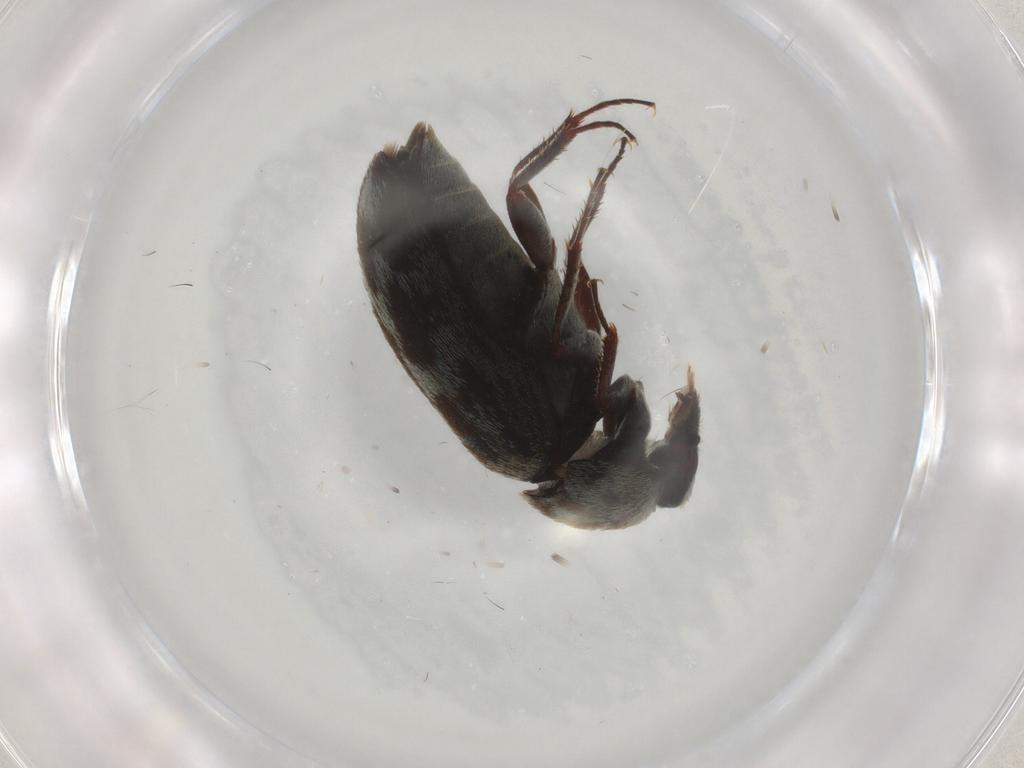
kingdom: Animalia
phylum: Arthropoda
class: Insecta
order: Coleoptera
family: Dermestidae
